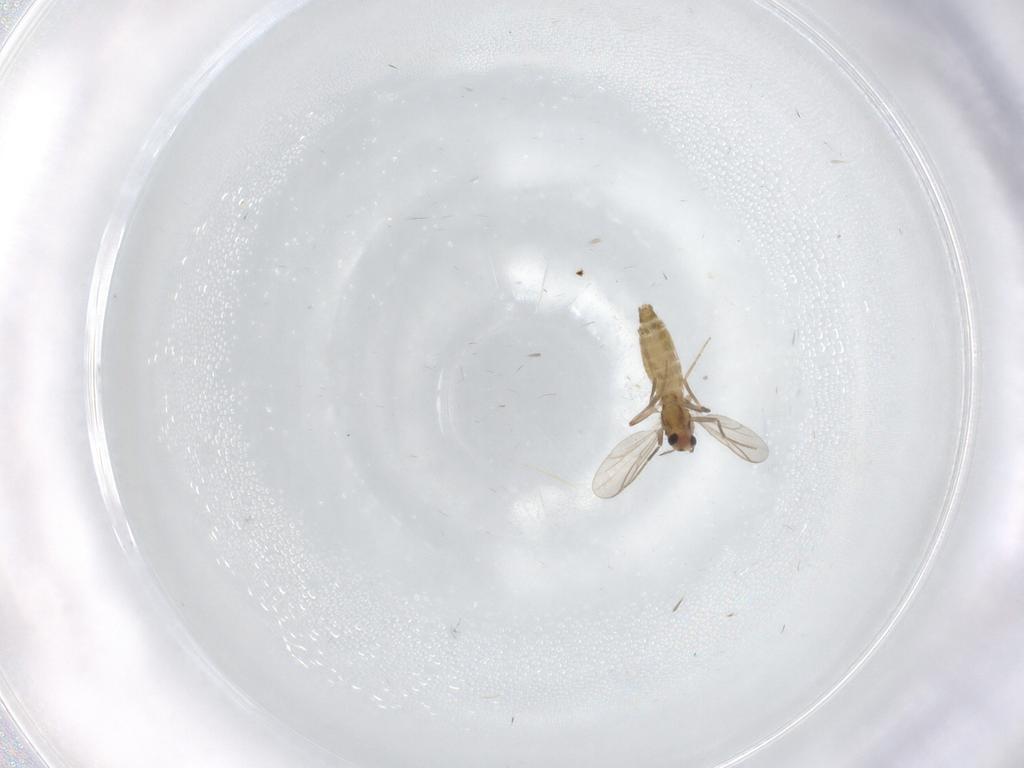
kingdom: Animalia
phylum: Arthropoda
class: Insecta
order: Diptera
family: Chironomidae
